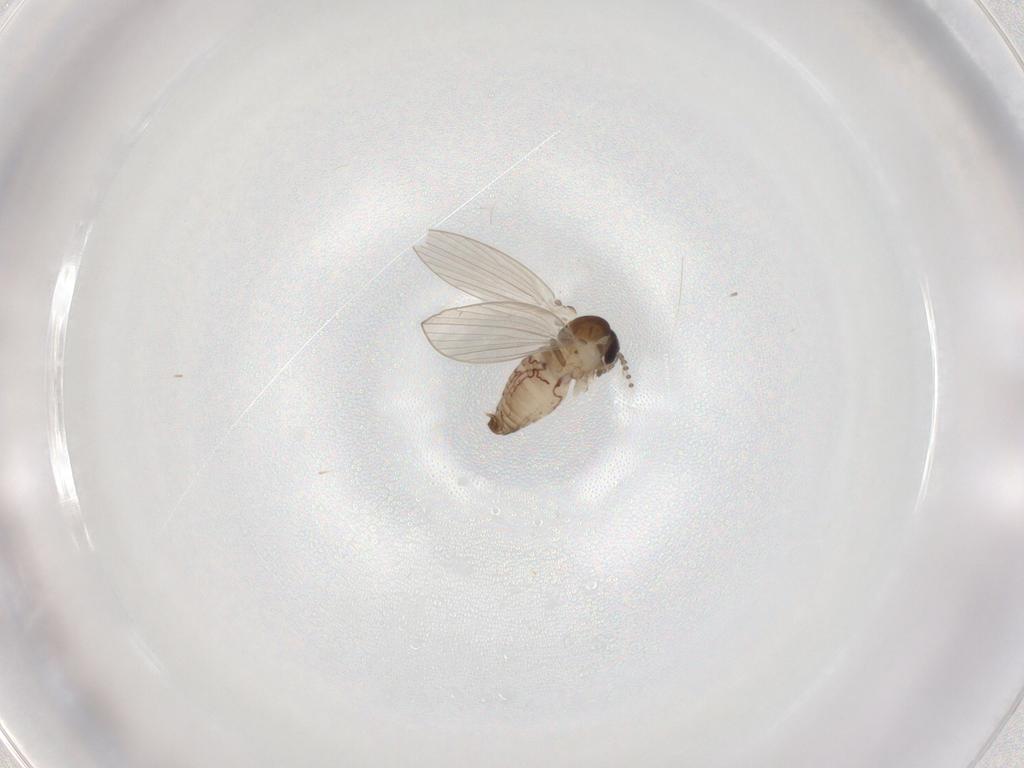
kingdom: Animalia
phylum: Arthropoda
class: Insecta
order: Diptera
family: Psychodidae
